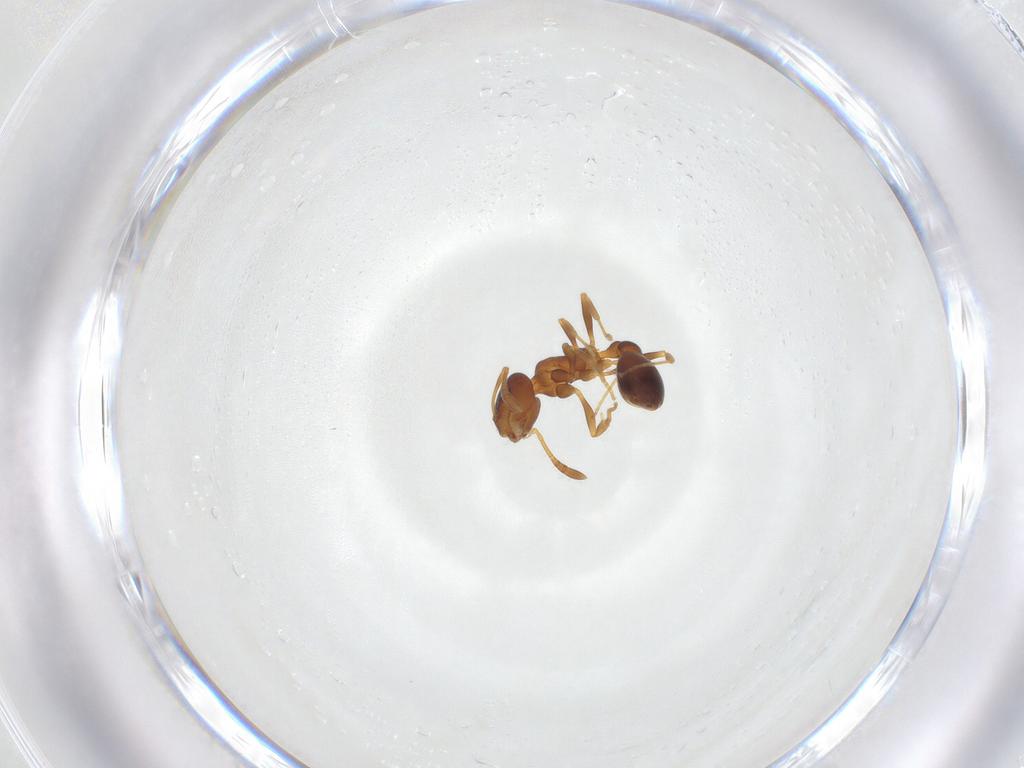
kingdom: Animalia
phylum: Arthropoda
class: Insecta
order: Hymenoptera
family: Formicidae
